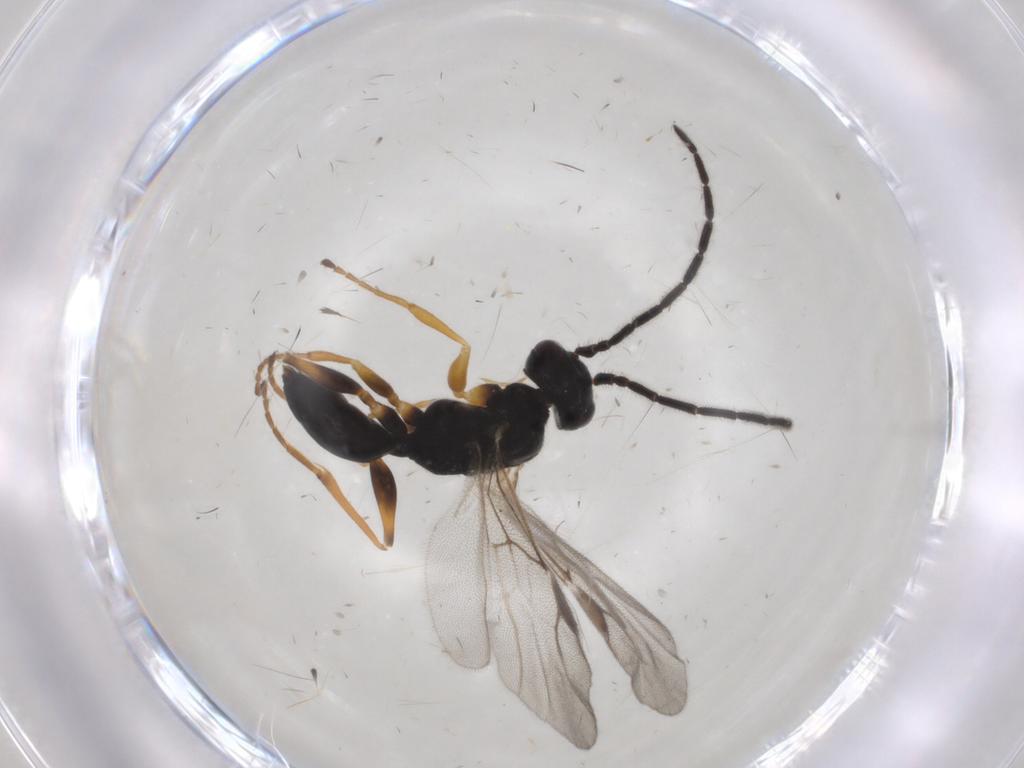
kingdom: Animalia
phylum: Arthropoda
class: Insecta
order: Hymenoptera
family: Dryinidae
